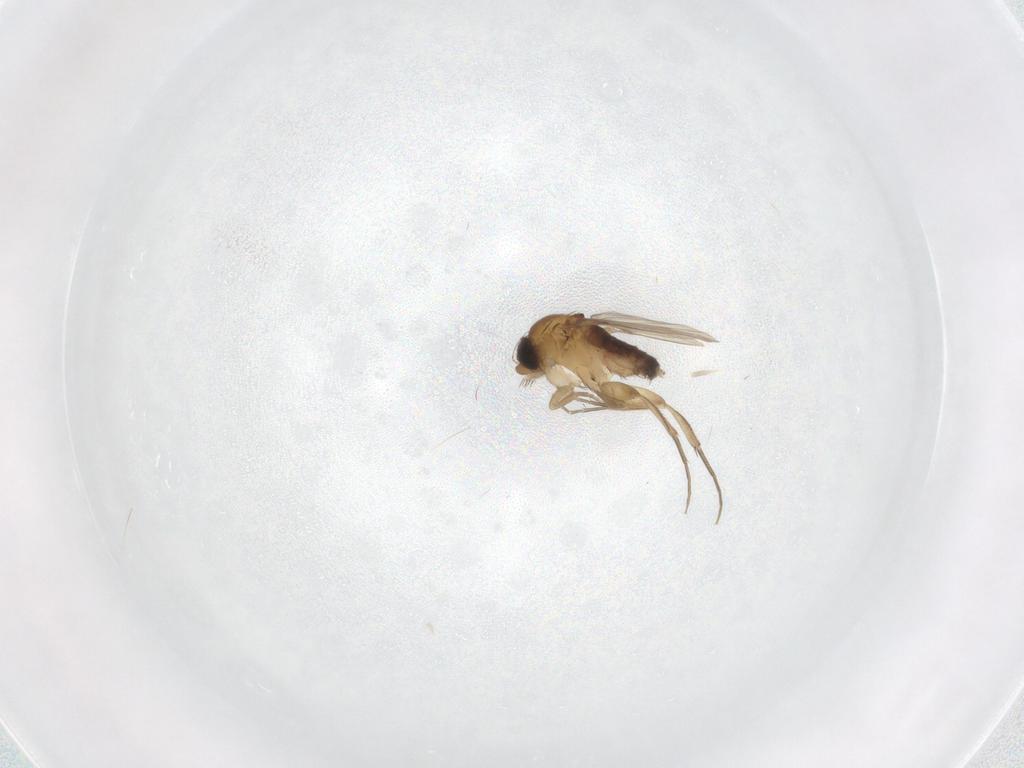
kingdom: Animalia
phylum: Arthropoda
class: Insecta
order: Diptera
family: Phoridae
